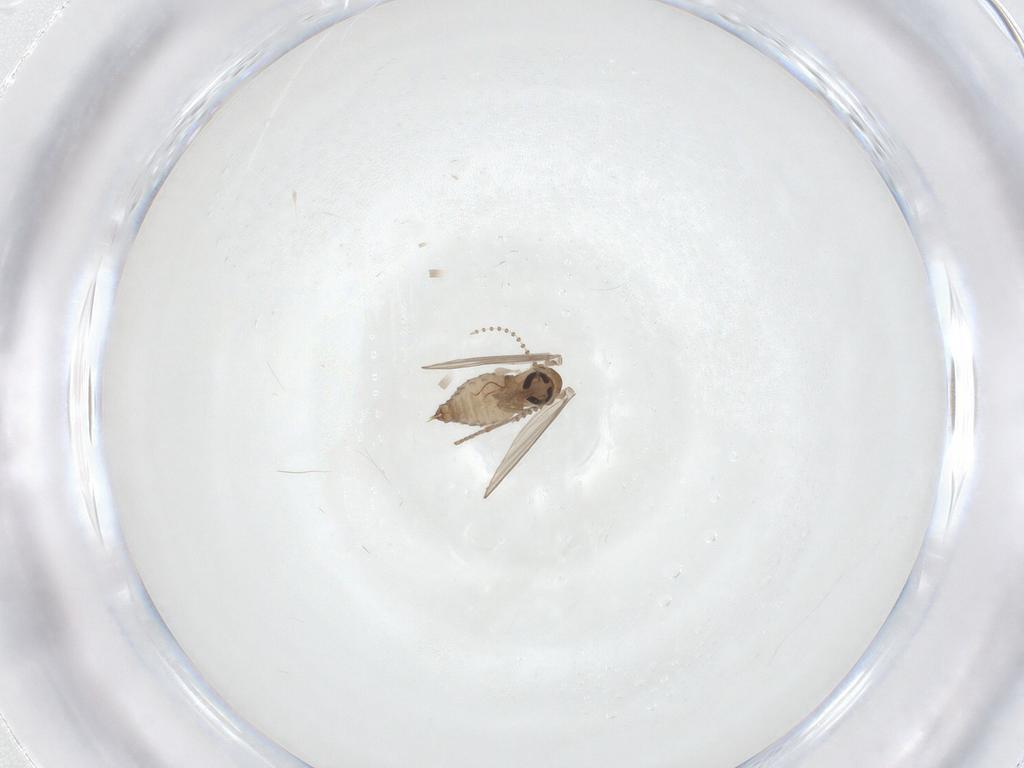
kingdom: Animalia
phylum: Arthropoda
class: Insecta
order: Diptera
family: Psychodidae
